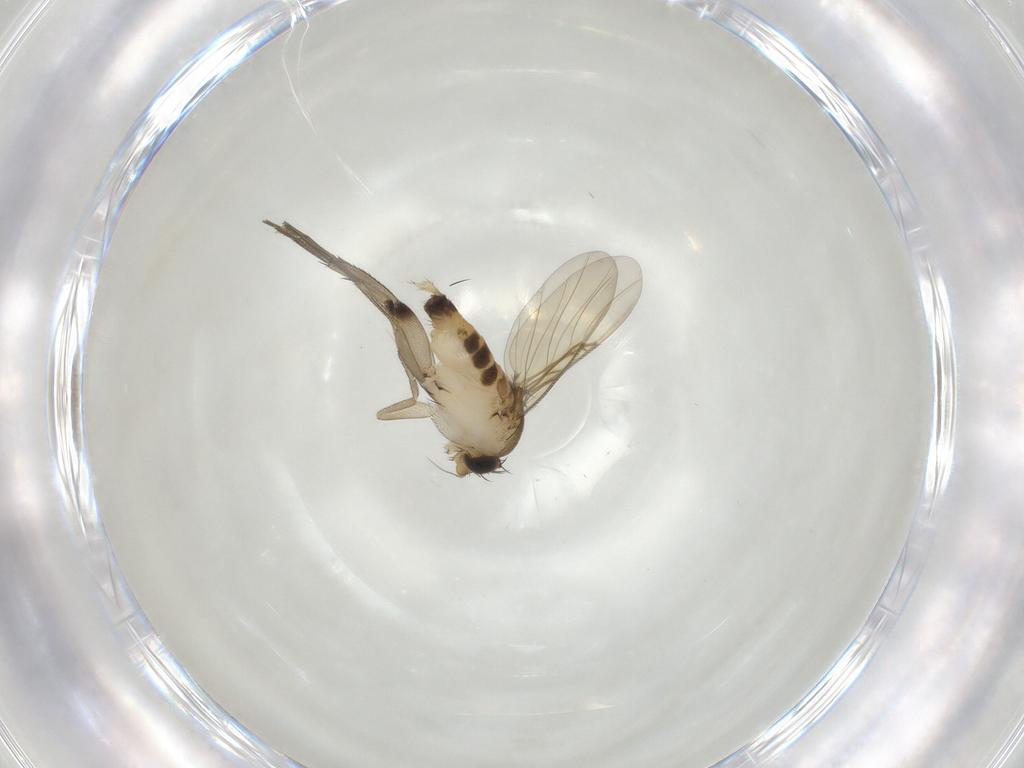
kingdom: Animalia
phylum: Arthropoda
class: Insecta
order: Diptera
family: Phoridae
